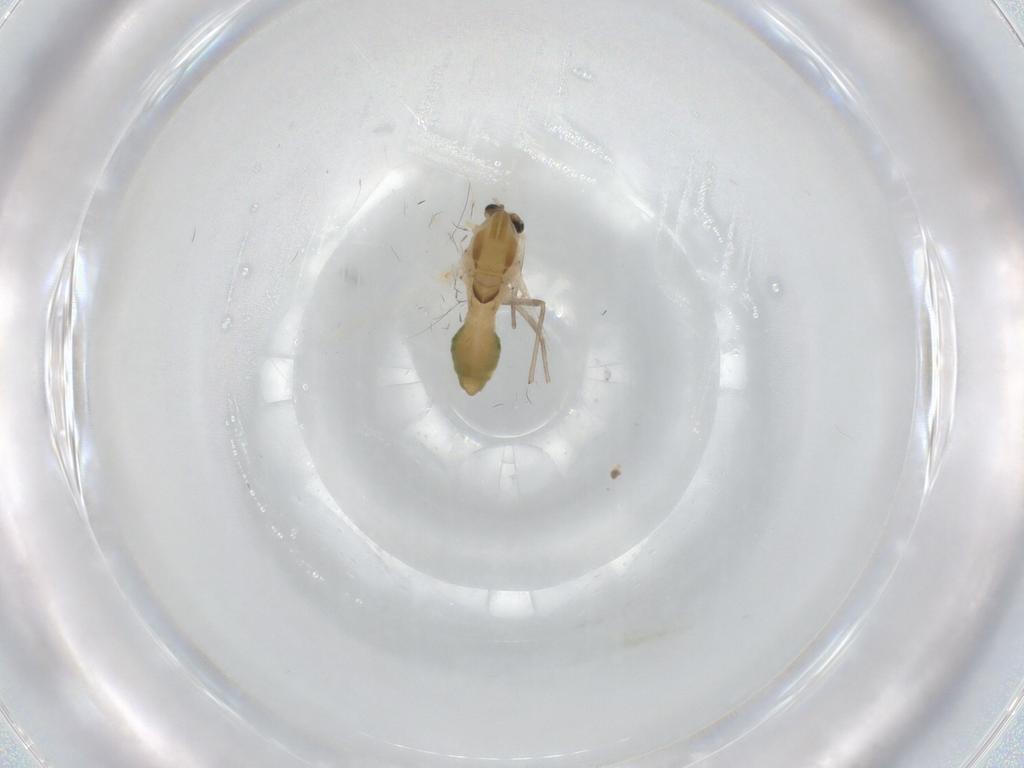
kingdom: Animalia
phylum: Arthropoda
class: Insecta
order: Diptera
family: Chironomidae
